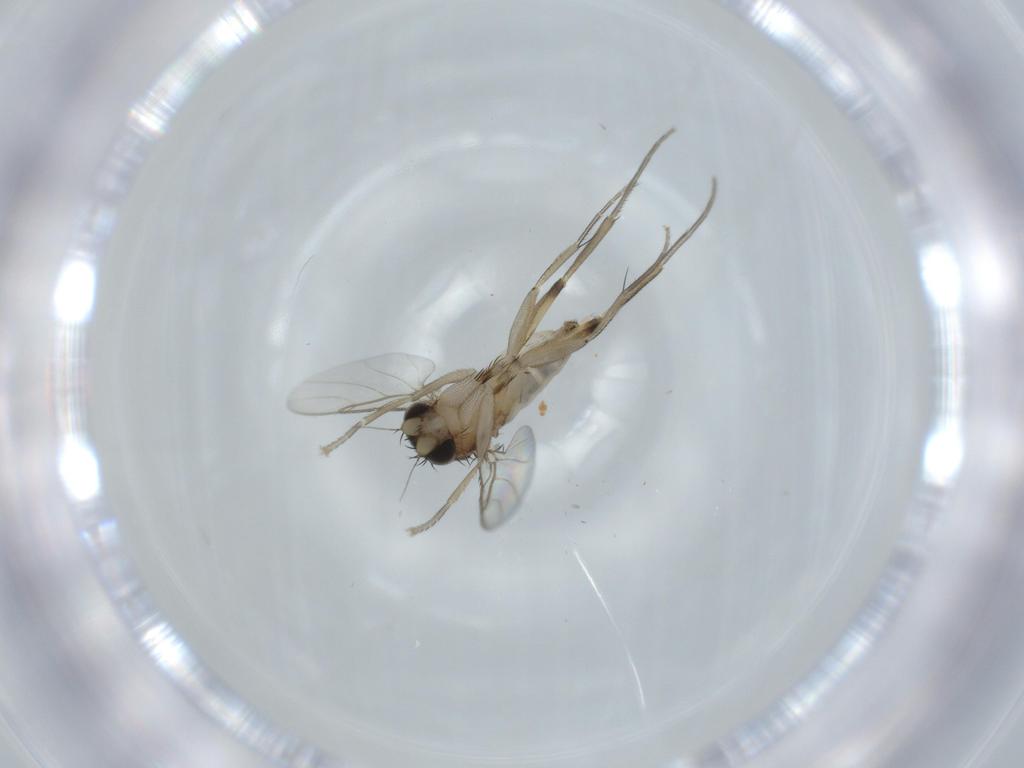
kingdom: Animalia
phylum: Arthropoda
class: Insecta
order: Diptera
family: Phoridae
